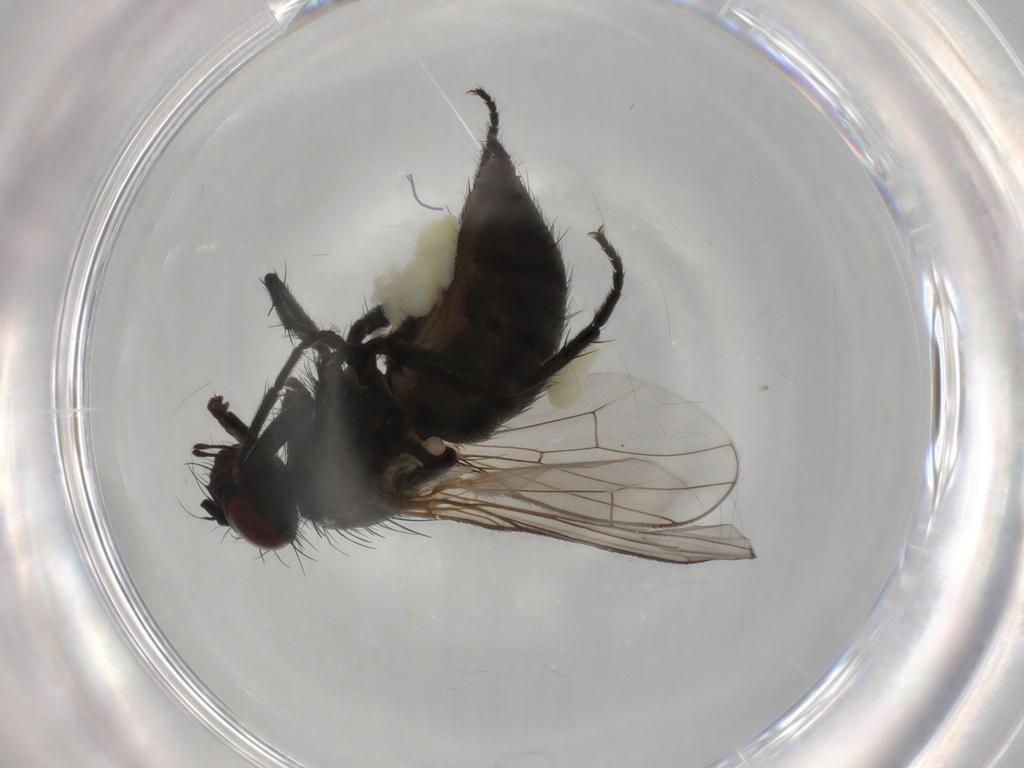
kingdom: Animalia
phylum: Arthropoda
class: Insecta
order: Diptera
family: Muscidae
